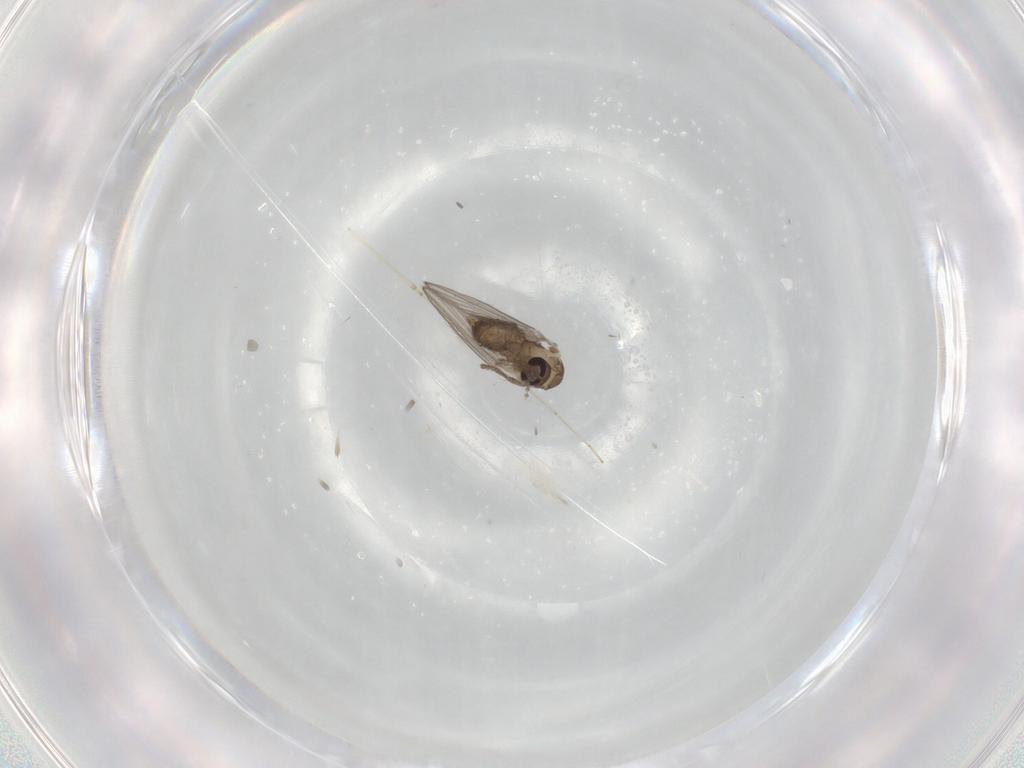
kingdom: Animalia
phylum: Arthropoda
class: Insecta
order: Diptera
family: Psychodidae
